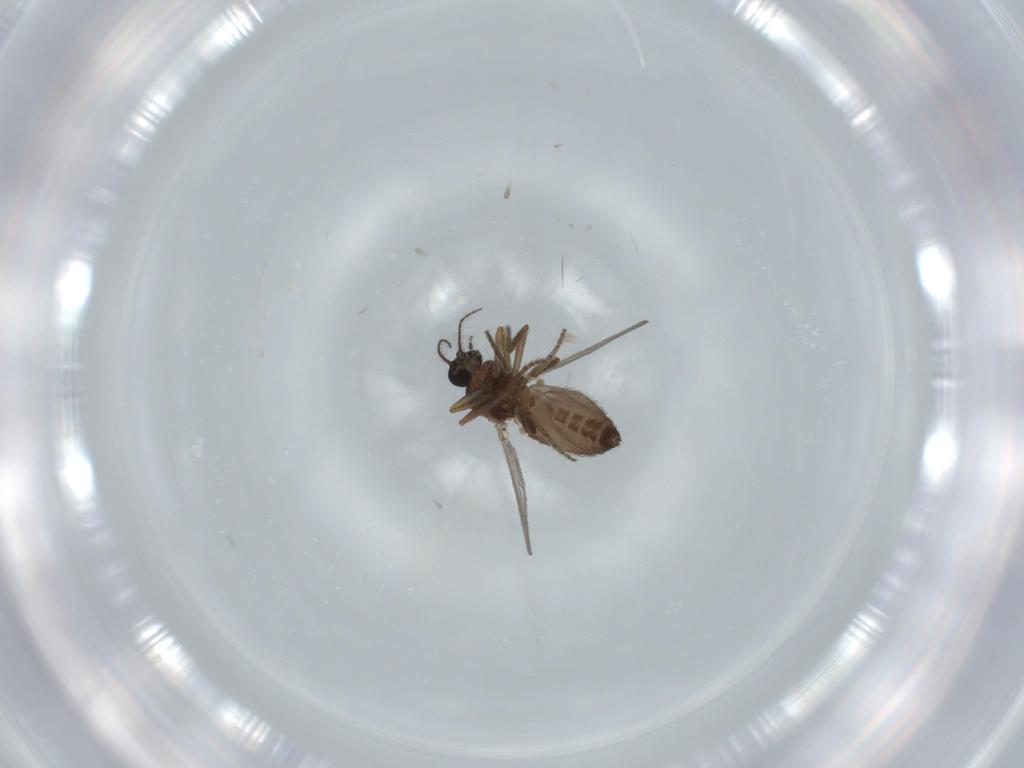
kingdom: Animalia
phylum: Arthropoda
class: Insecta
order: Diptera
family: Ceratopogonidae
